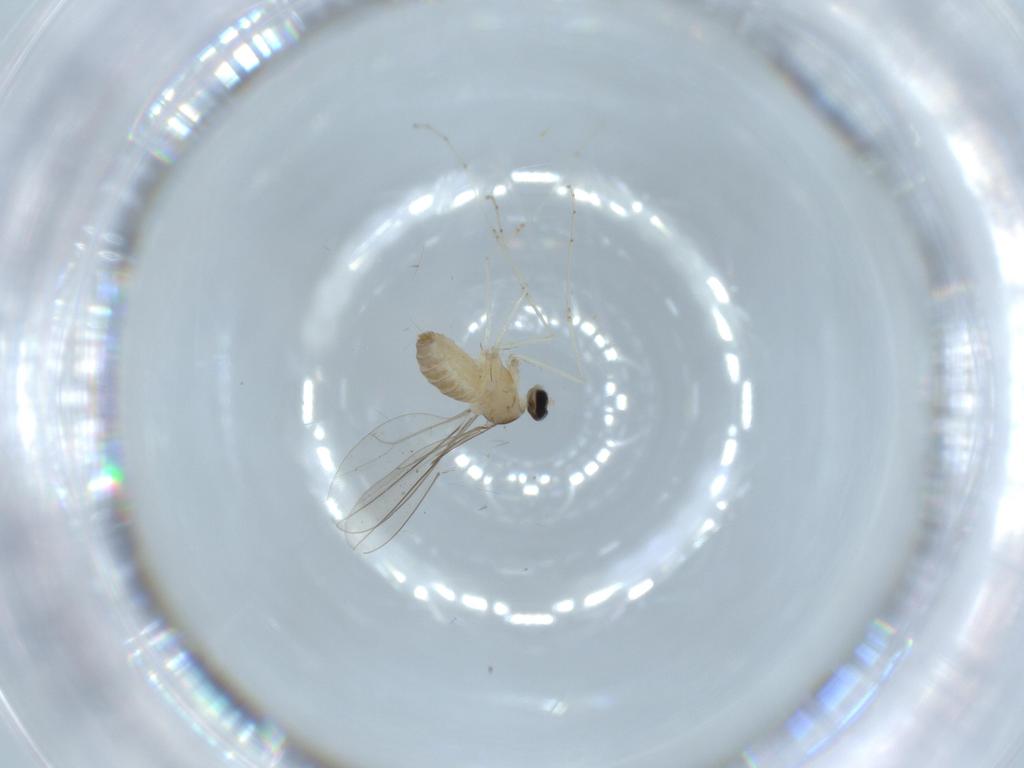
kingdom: Animalia
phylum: Arthropoda
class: Insecta
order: Diptera
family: Cecidomyiidae
